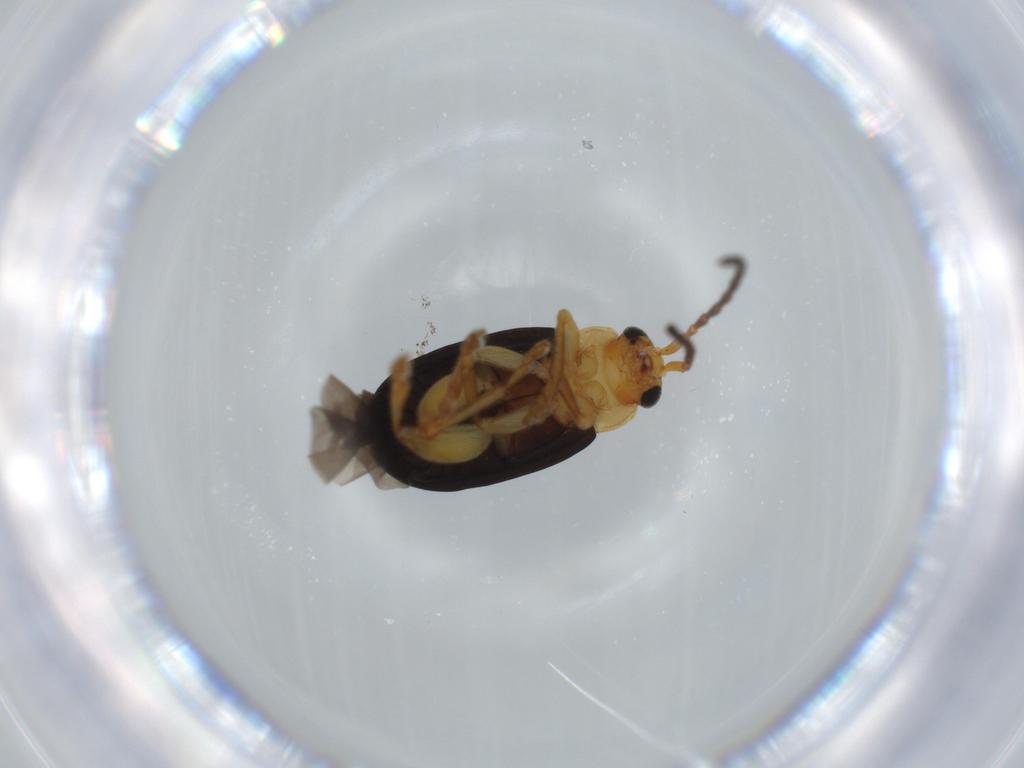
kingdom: Animalia
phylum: Arthropoda
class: Insecta
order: Coleoptera
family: Chrysomelidae
